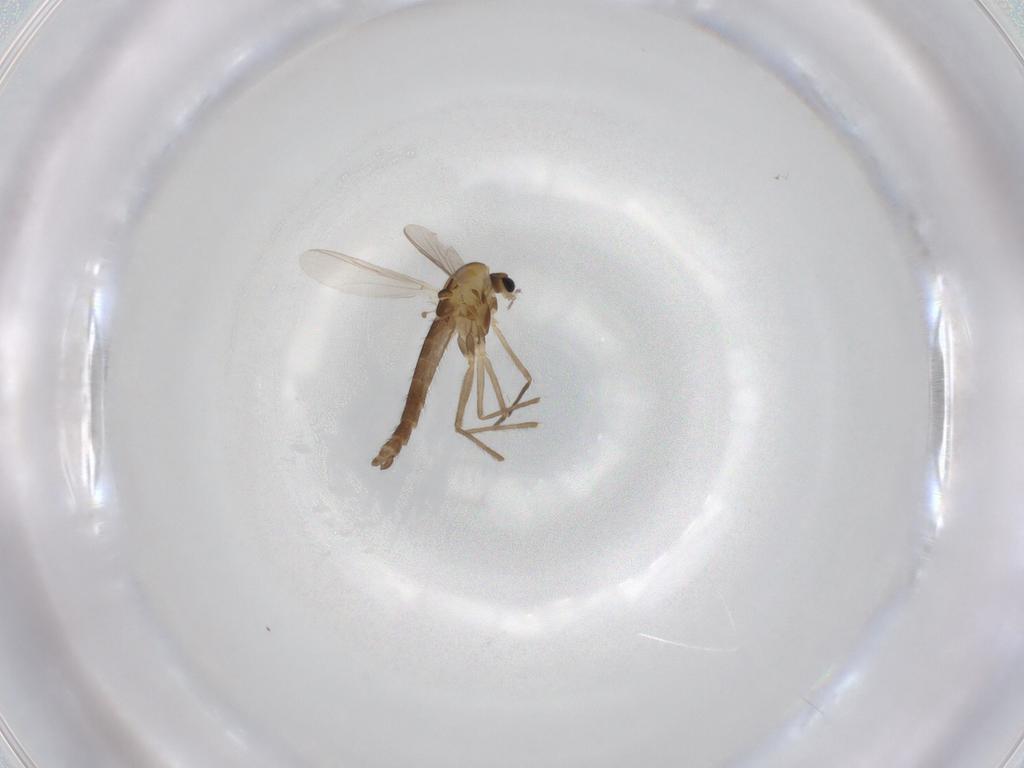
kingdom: Animalia
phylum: Arthropoda
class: Insecta
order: Diptera
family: Chironomidae
